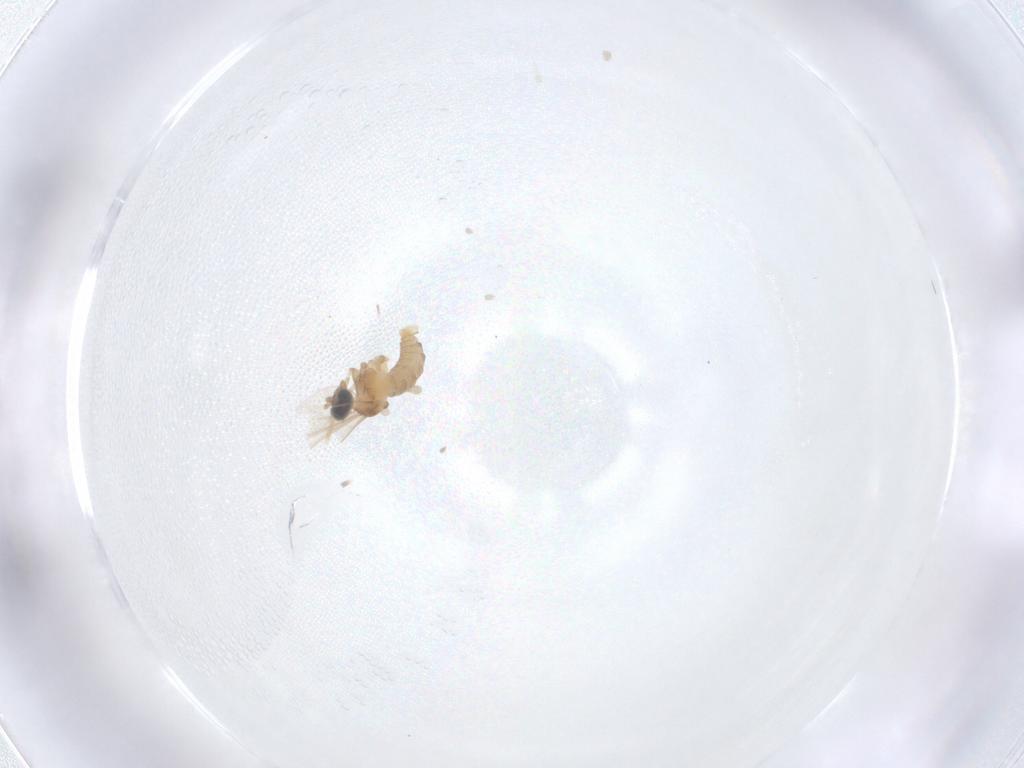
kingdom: Animalia
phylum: Arthropoda
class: Insecta
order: Diptera
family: Cecidomyiidae
